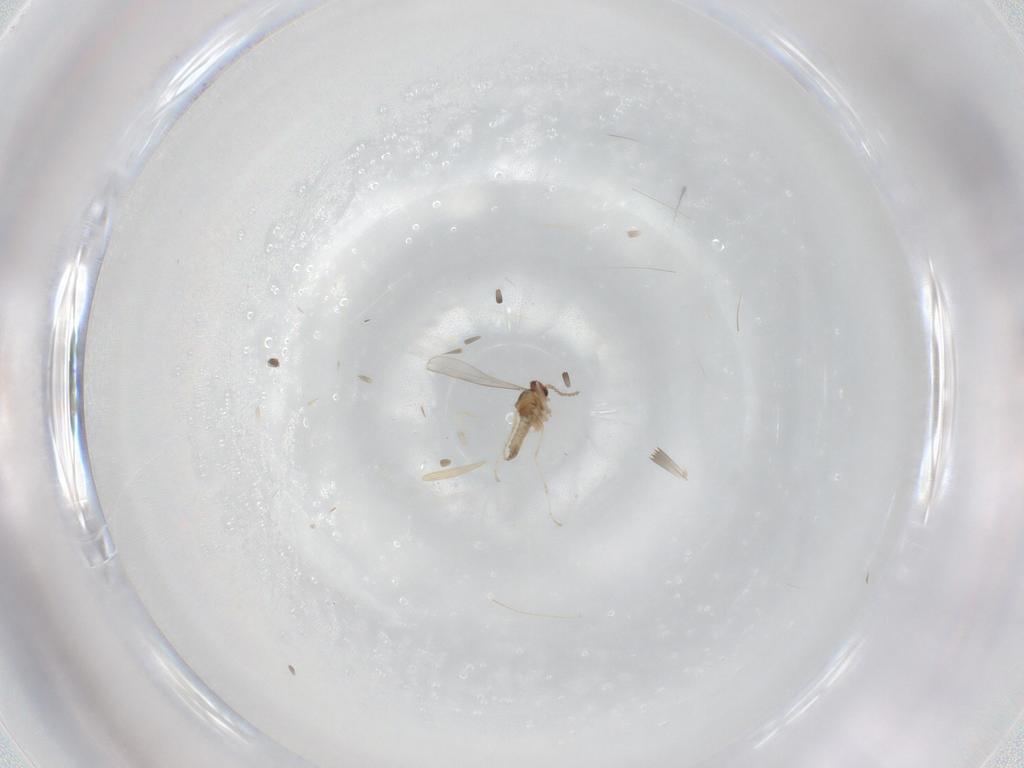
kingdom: Animalia
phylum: Arthropoda
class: Insecta
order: Diptera
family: Cecidomyiidae
